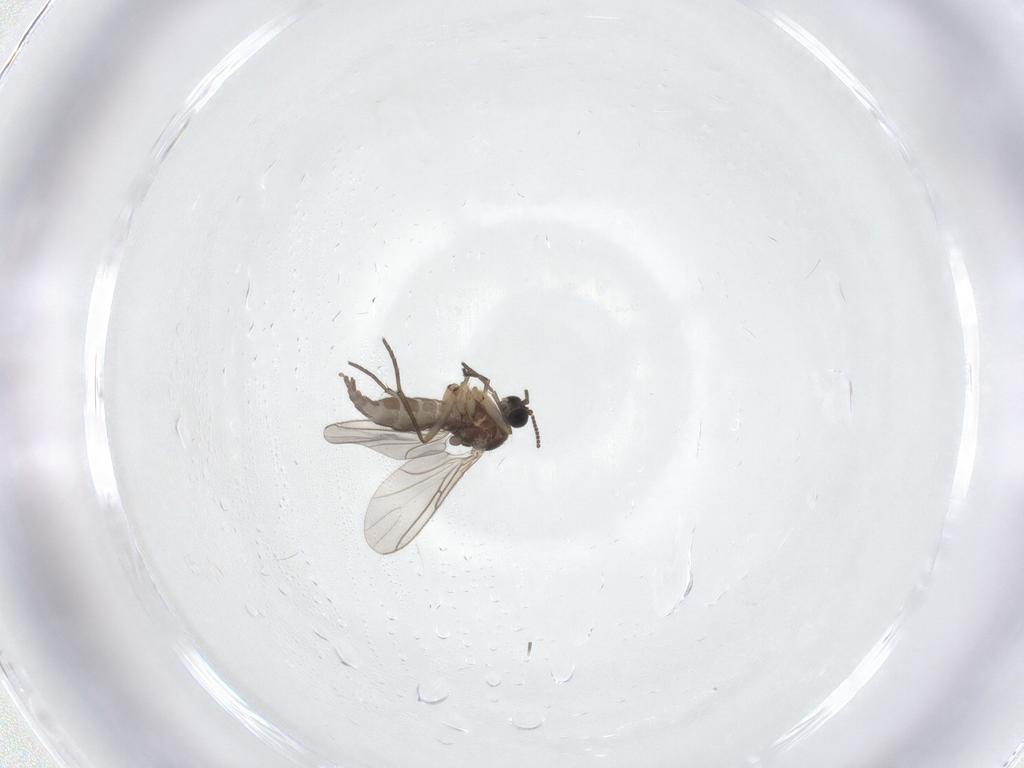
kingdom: Animalia
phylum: Arthropoda
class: Insecta
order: Diptera
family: Sciaridae
